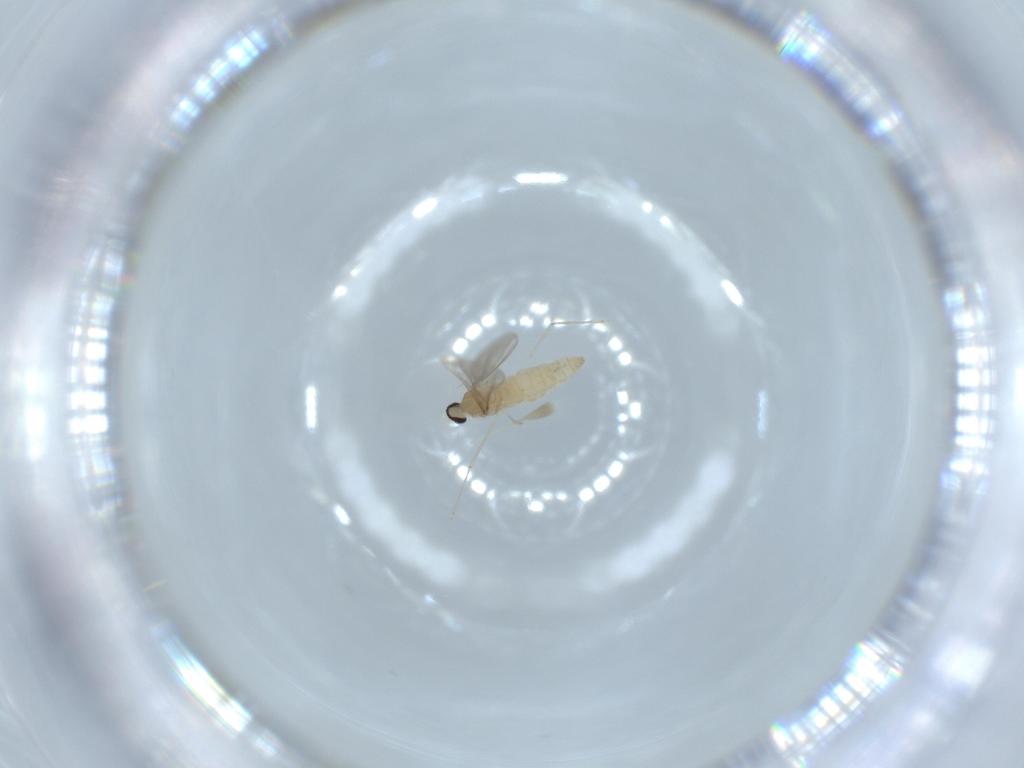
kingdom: Animalia
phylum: Arthropoda
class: Insecta
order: Diptera
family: Cecidomyiidae
